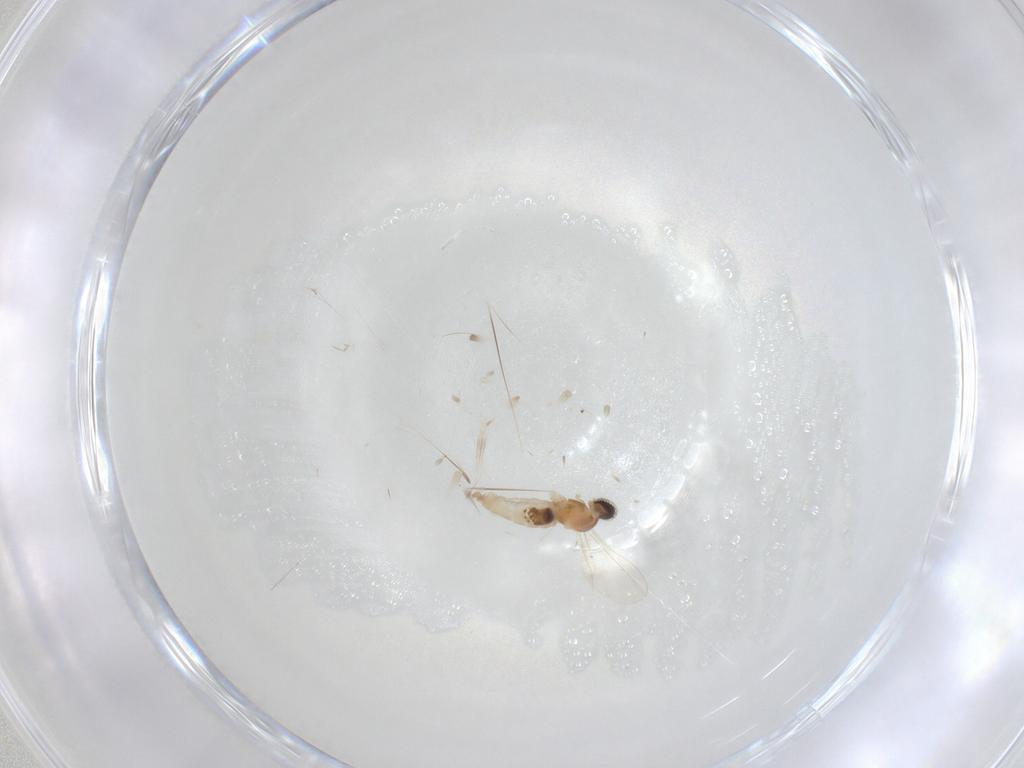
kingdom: Animalia
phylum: Arthropoda
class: Insecta
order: Diptera
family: Cecidomyiidae
